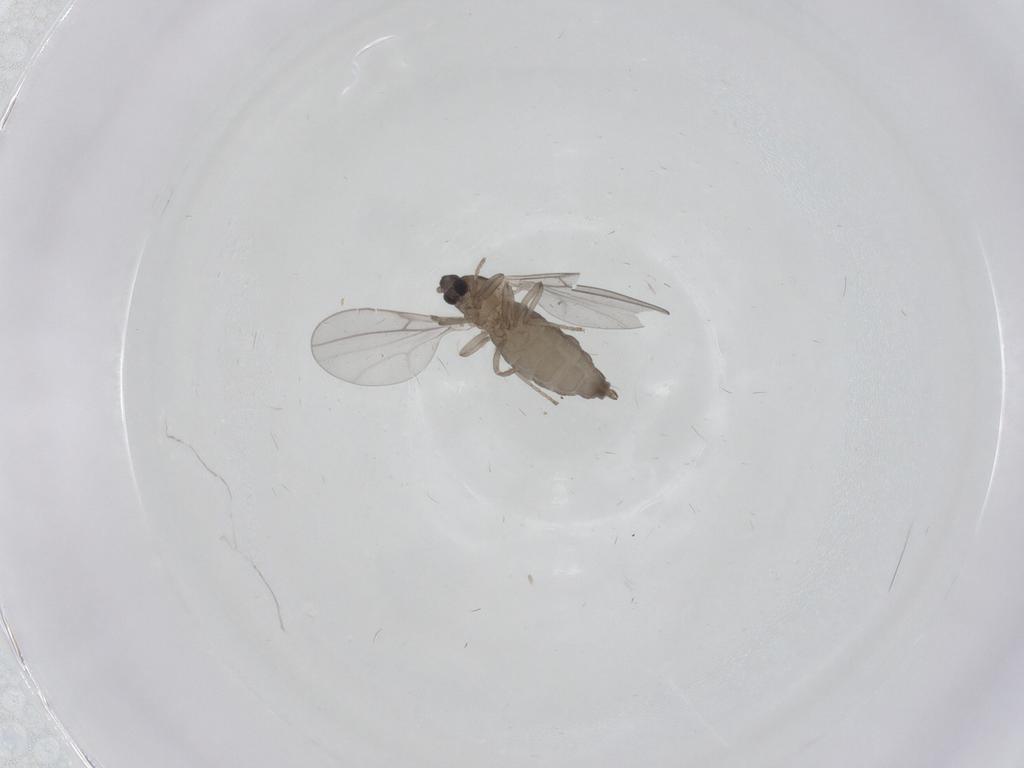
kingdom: Animalia
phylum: Arthropoda
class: Insecta
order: Diptera
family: Cecidomyiidae
